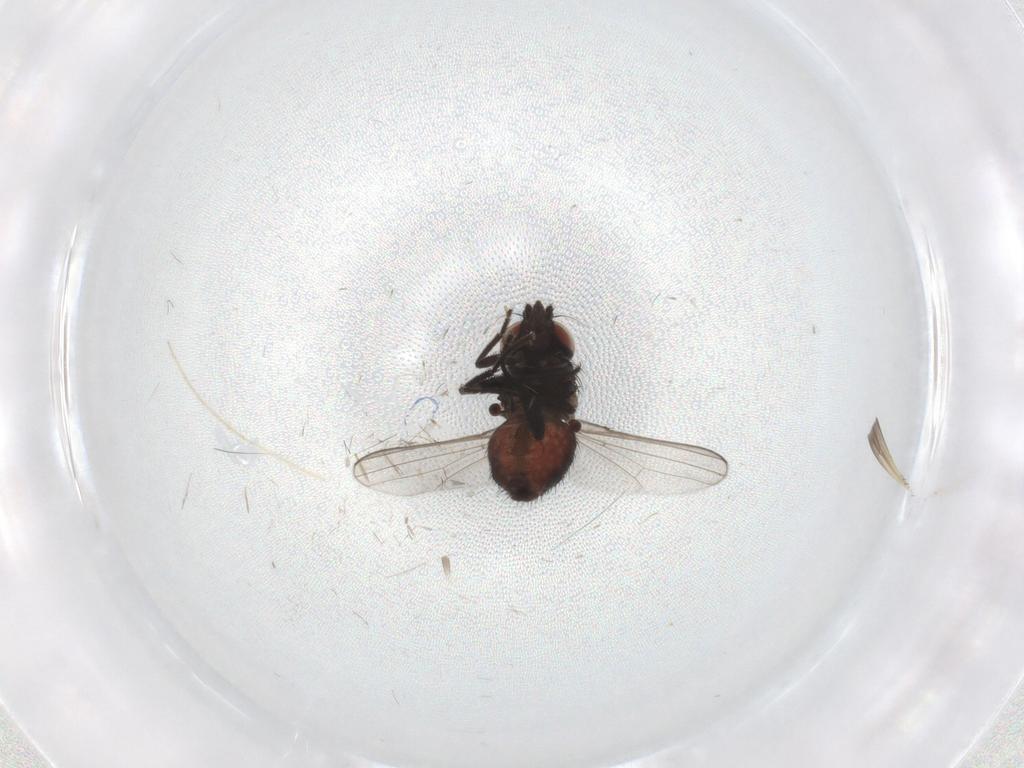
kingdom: Animalia
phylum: Arthropoda
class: Insecta
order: Diptera
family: Milichiidae
